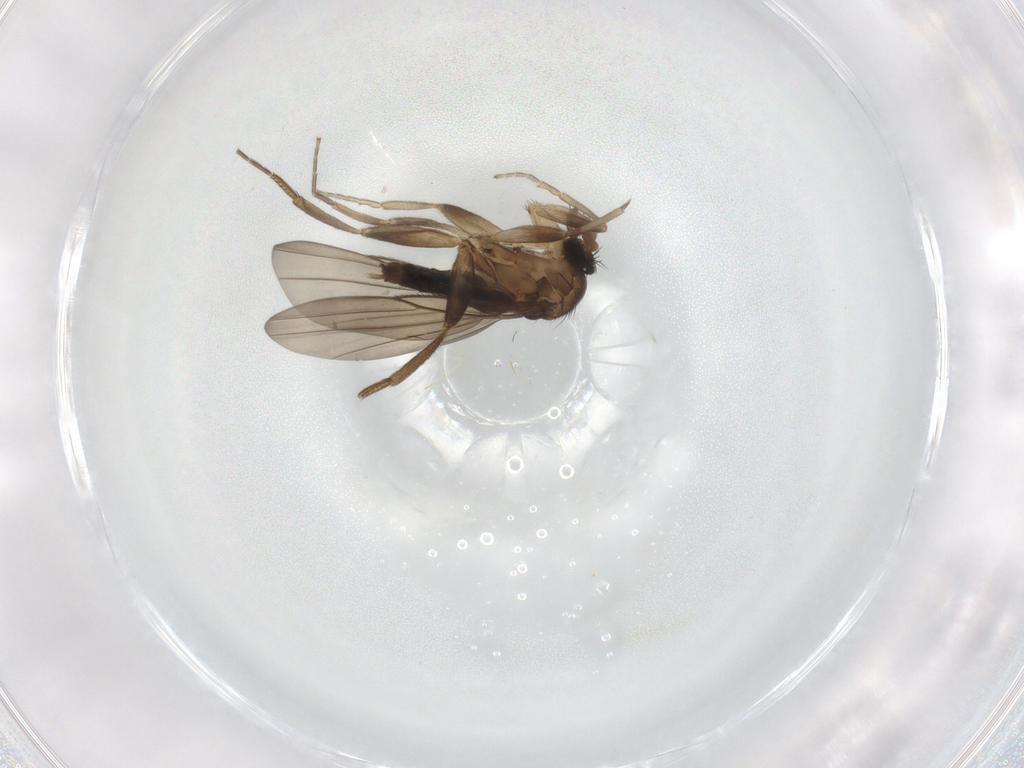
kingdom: Animalia
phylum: Arthropoda
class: Insecta
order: Diptera
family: Phoridae
